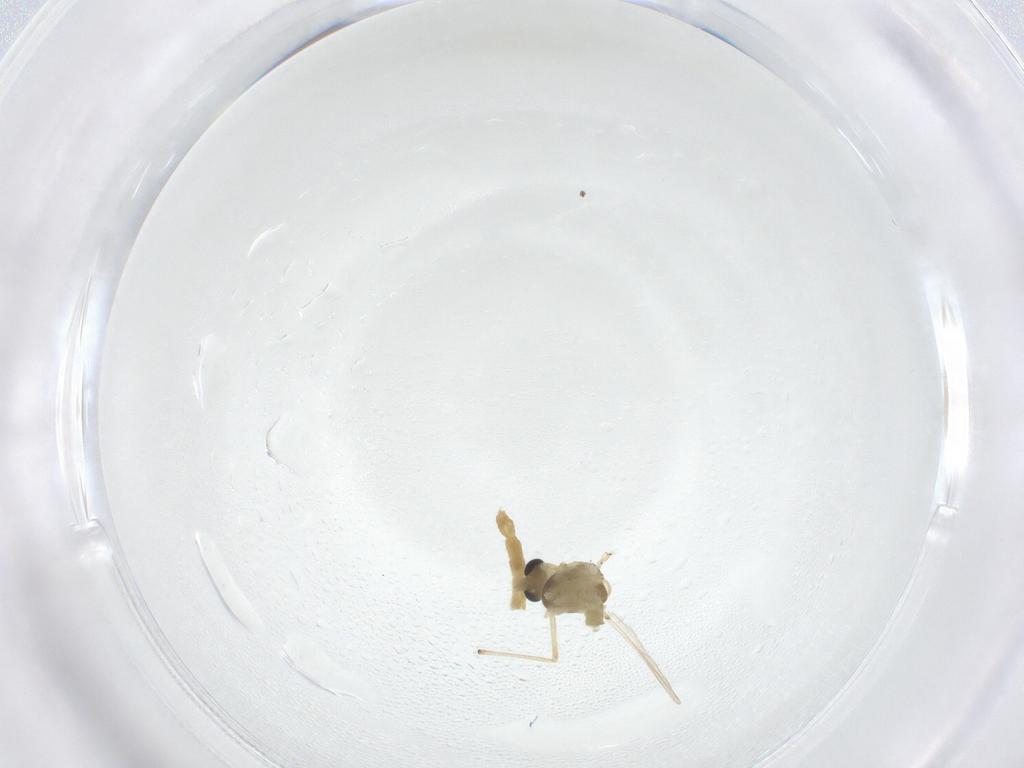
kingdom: Animalia
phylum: Arthropoda
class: Insecta
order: Diptera
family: Chironomidae
